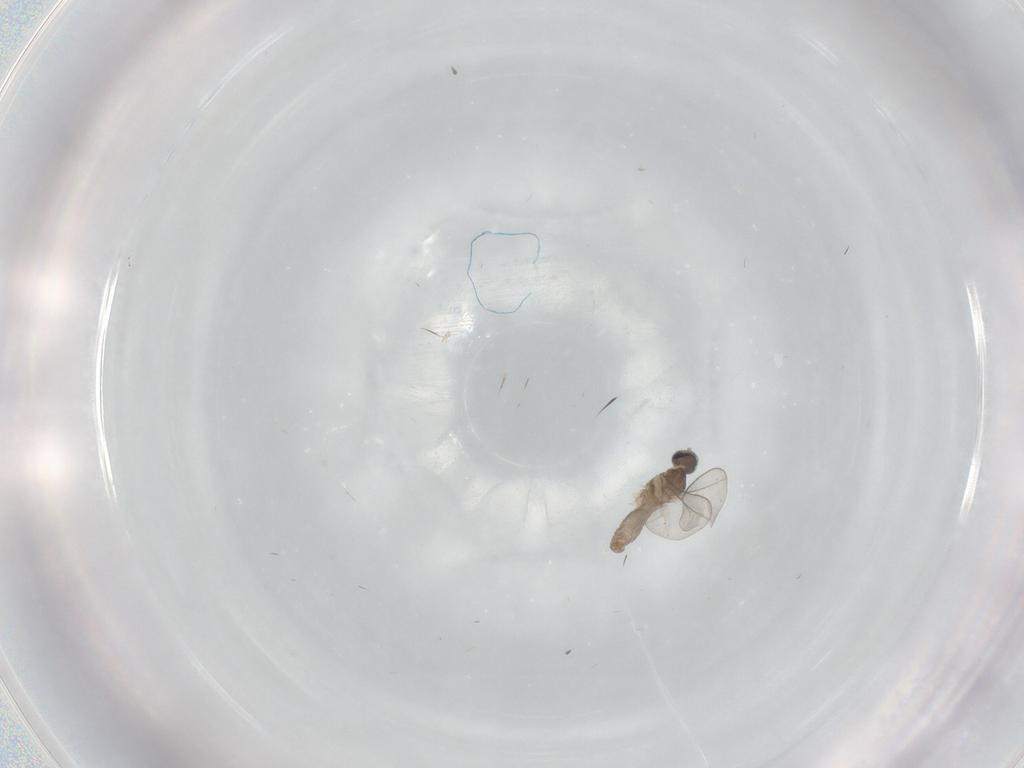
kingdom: Animalia
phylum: Arthropoda
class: Insecta
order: Diptera
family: Cecidomyiidae
